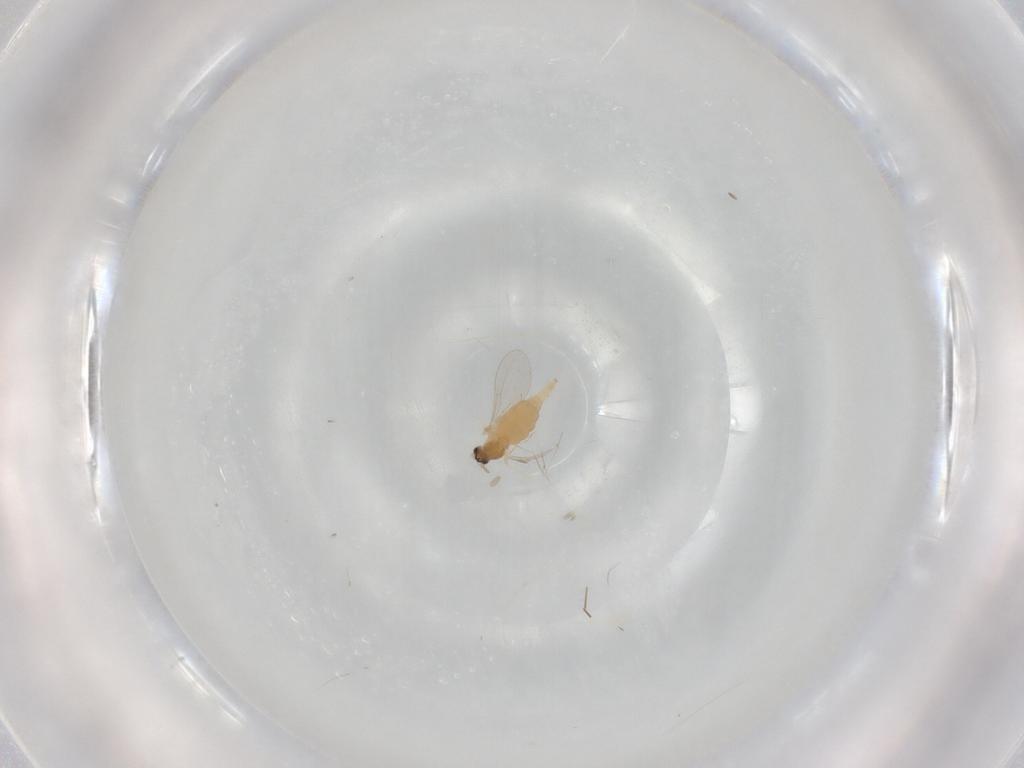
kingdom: Animalia
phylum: Arthropoda
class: Insecta
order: Diptera
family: Cecidomyiidae
